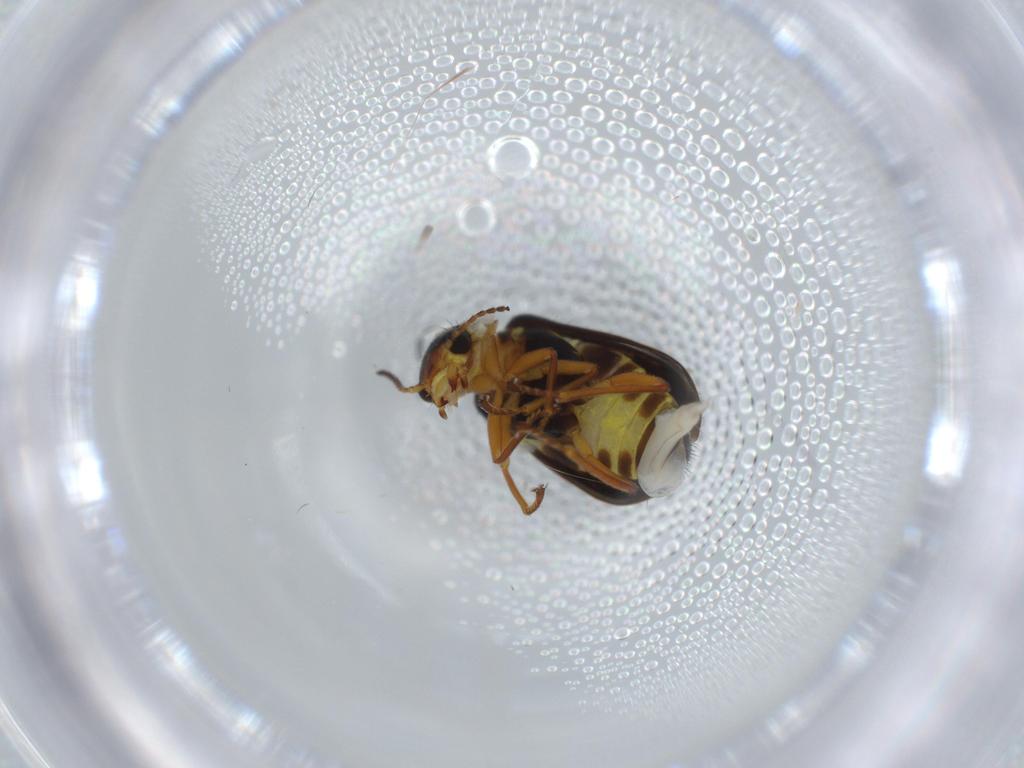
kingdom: Animalia
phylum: Arthropoda
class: Insecta
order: Coleoptera
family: Melyridae
